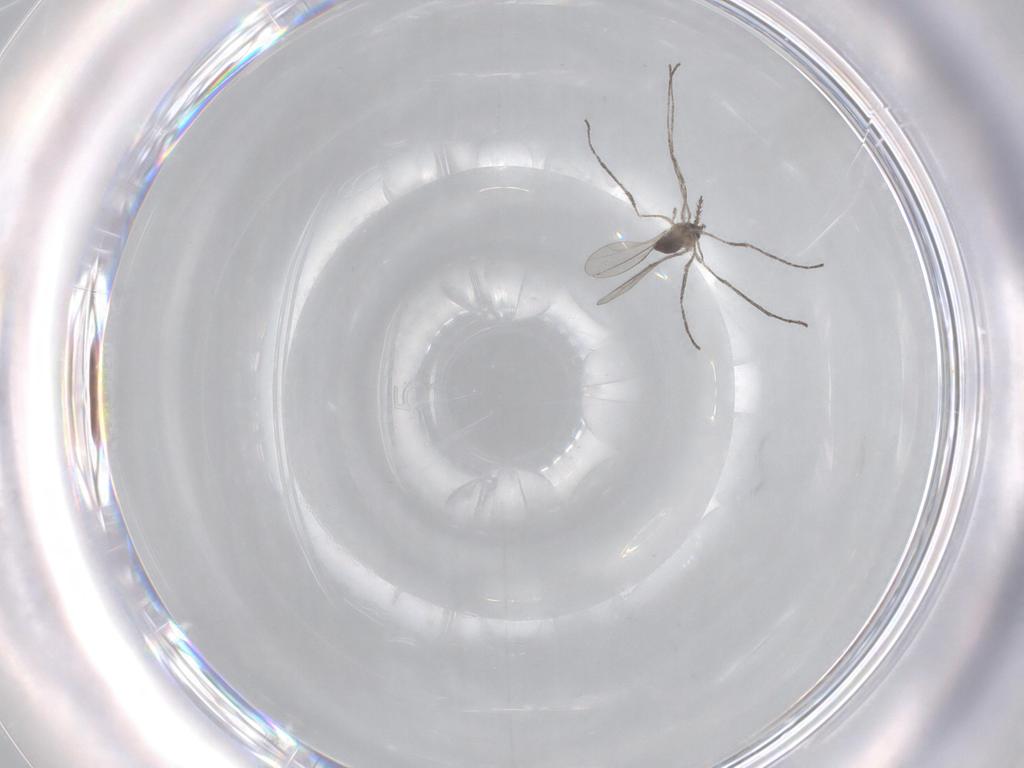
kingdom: Animalia
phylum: Arthropoda
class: Insecta
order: Diptera
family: Cecidomyiidae
